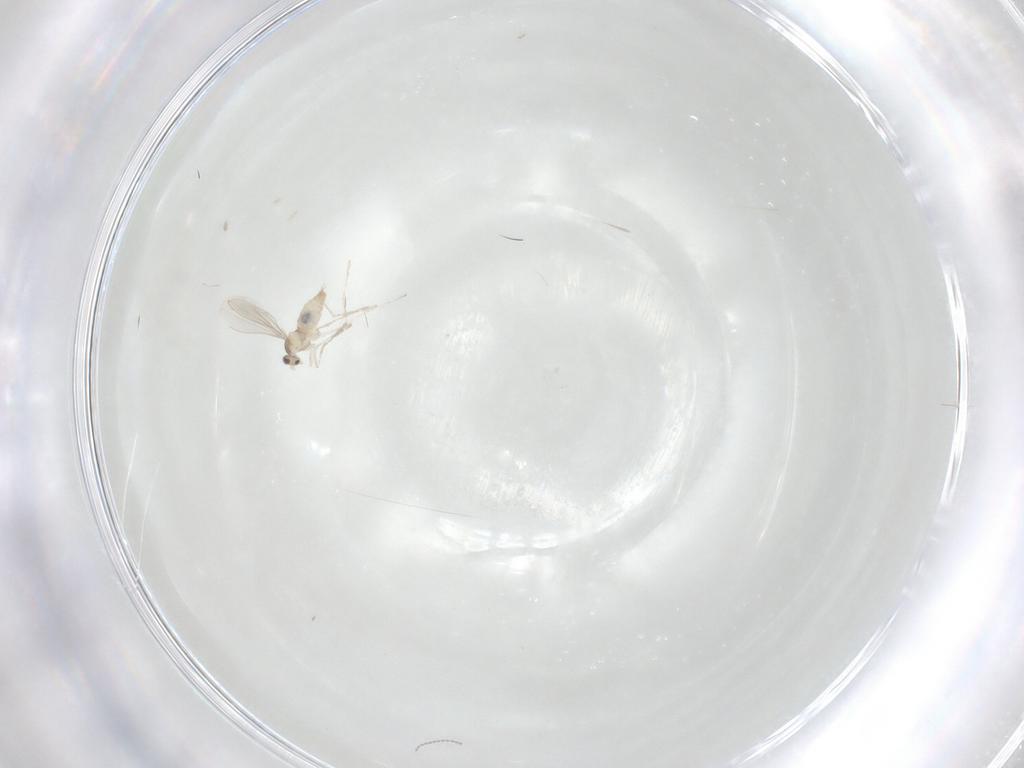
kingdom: Animalia
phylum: Arthropoda
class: Insecta
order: Diptera
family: Cecidomyiidae
